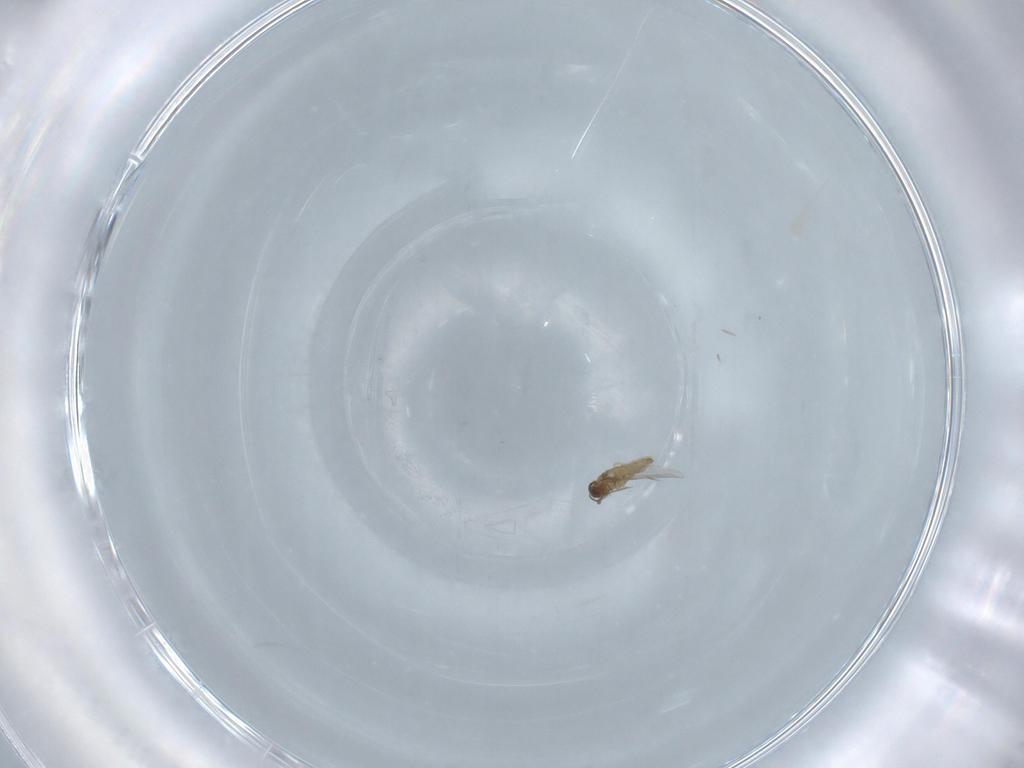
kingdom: Animalia
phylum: Arthropoda
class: Insecta
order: Diptera
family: Cecidomyiidae
